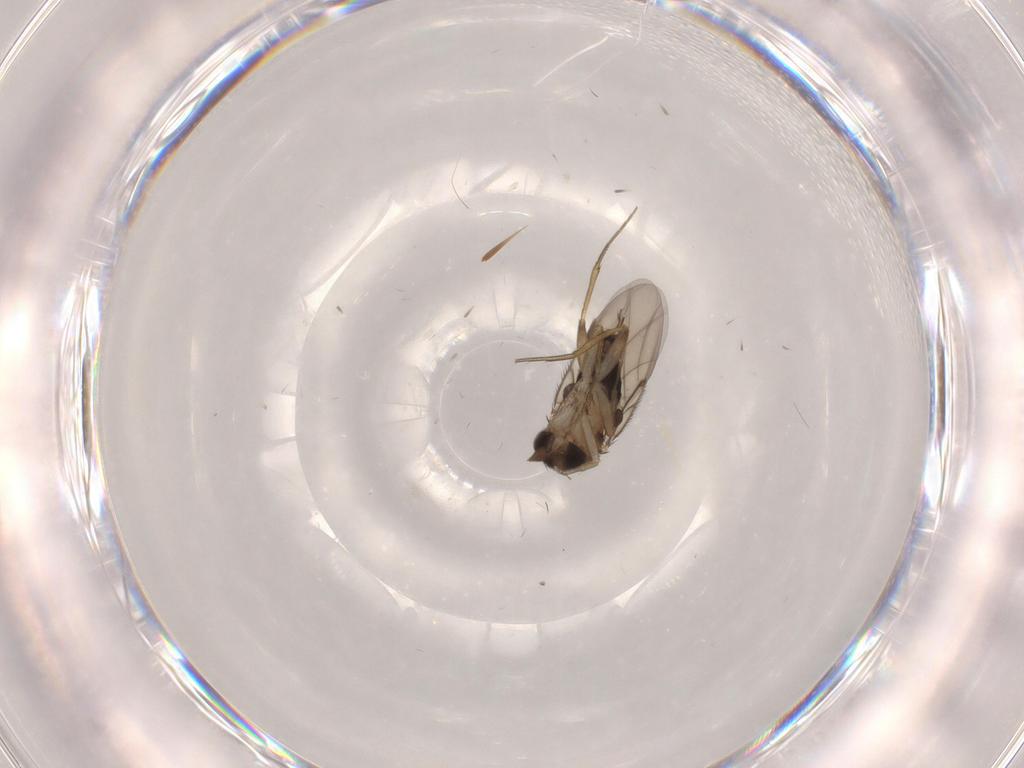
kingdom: Animalia
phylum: Arthropoda
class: Insecta
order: Diptera
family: Chironomidae
